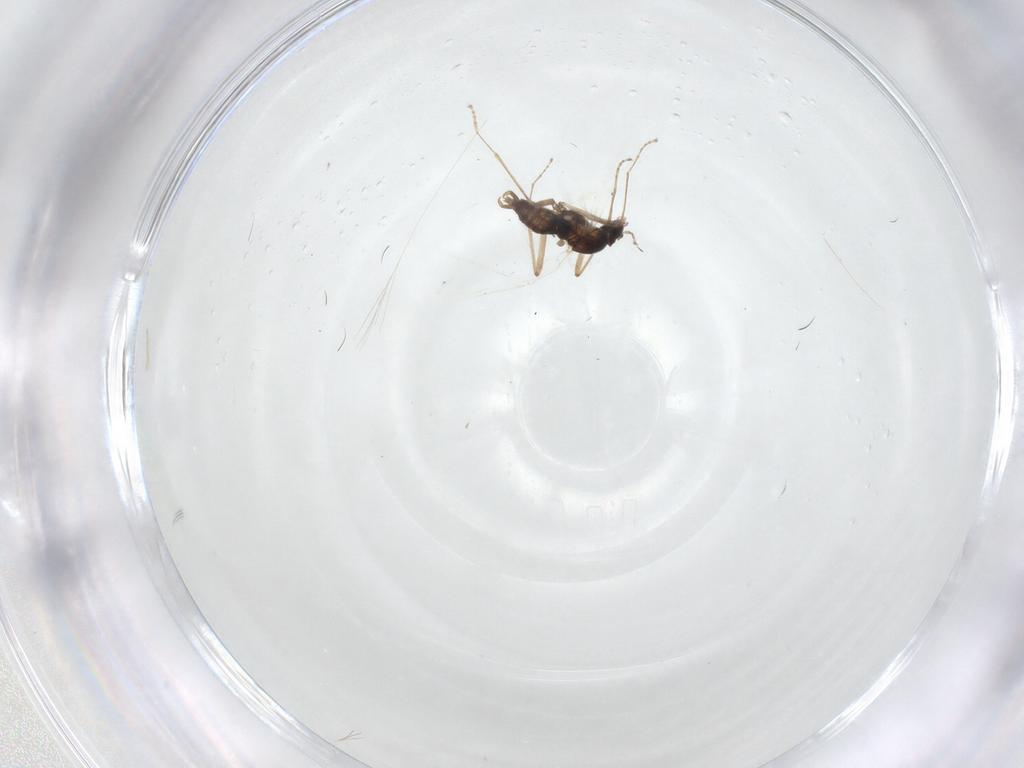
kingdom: Animalia
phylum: Arthropoda
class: Insecta
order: Diptera
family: Cecidomyiidae
